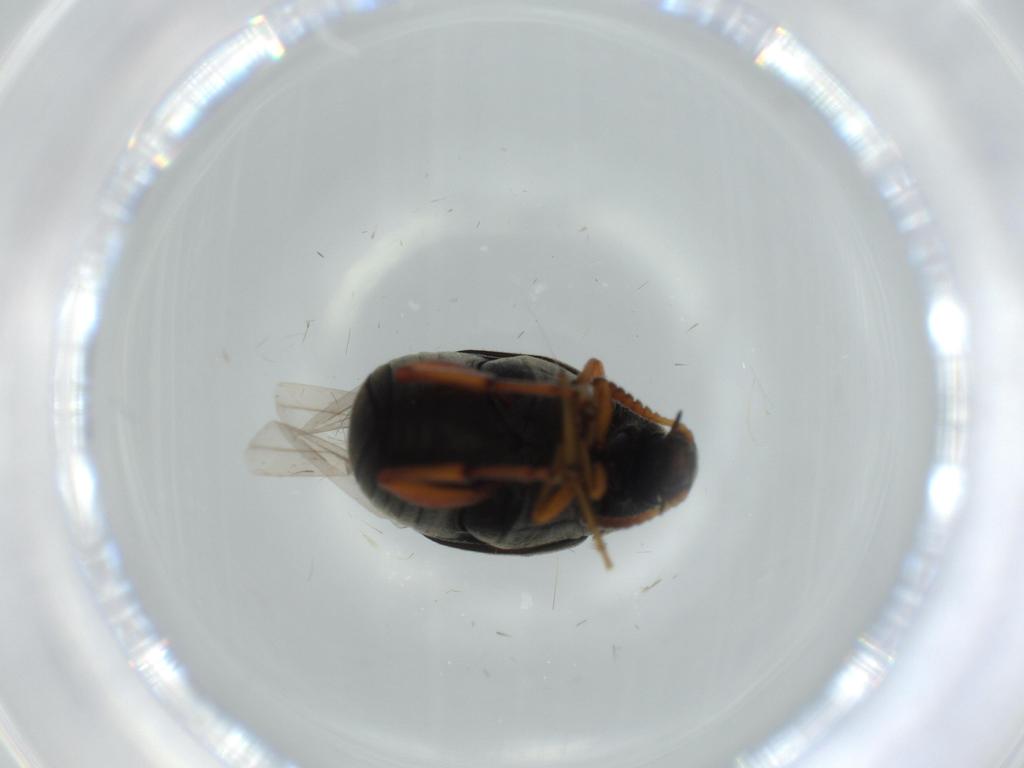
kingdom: Animalia
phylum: Arthropoda
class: Insecta
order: Coleoptera
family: Chrysomelidae
